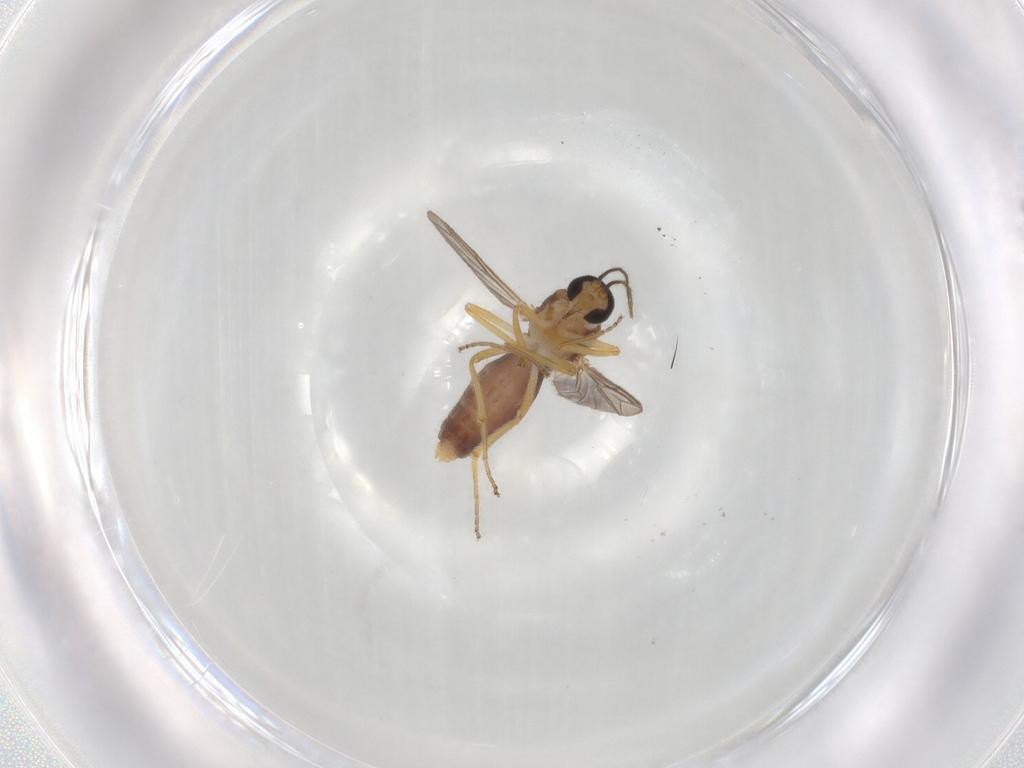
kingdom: Animalia
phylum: Arthropoda
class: Insecta
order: Diptera
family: Ceratopogonidae
